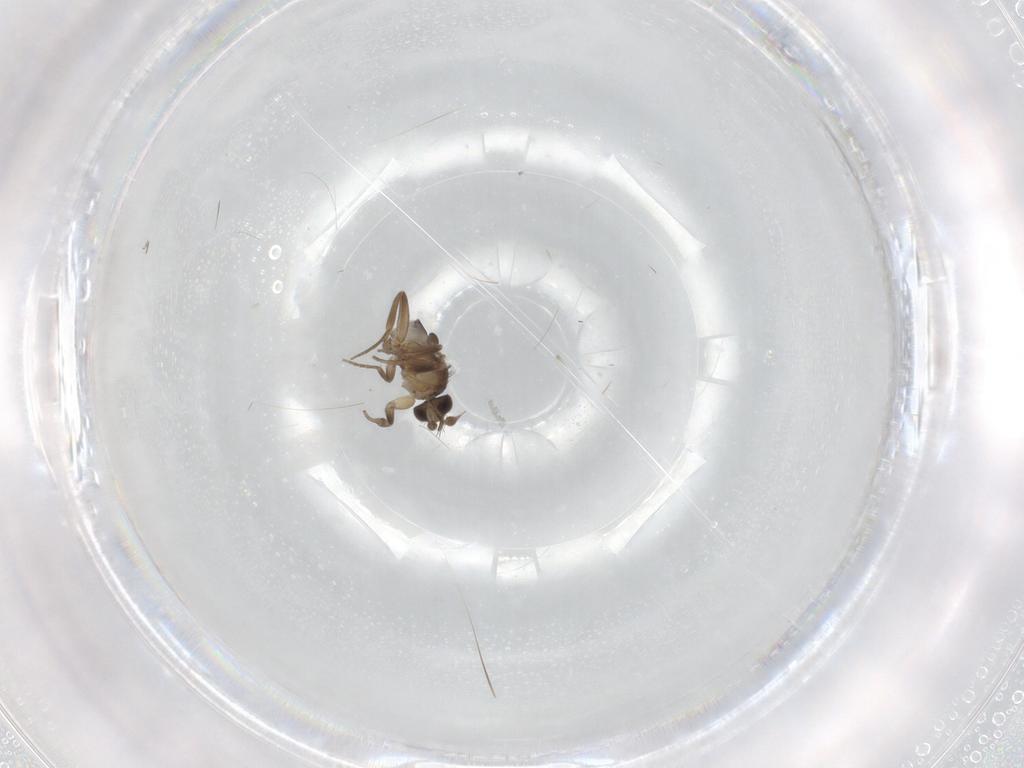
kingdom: Animalia
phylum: Arthropoda
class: Insecta
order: Diptera
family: Phoridae
